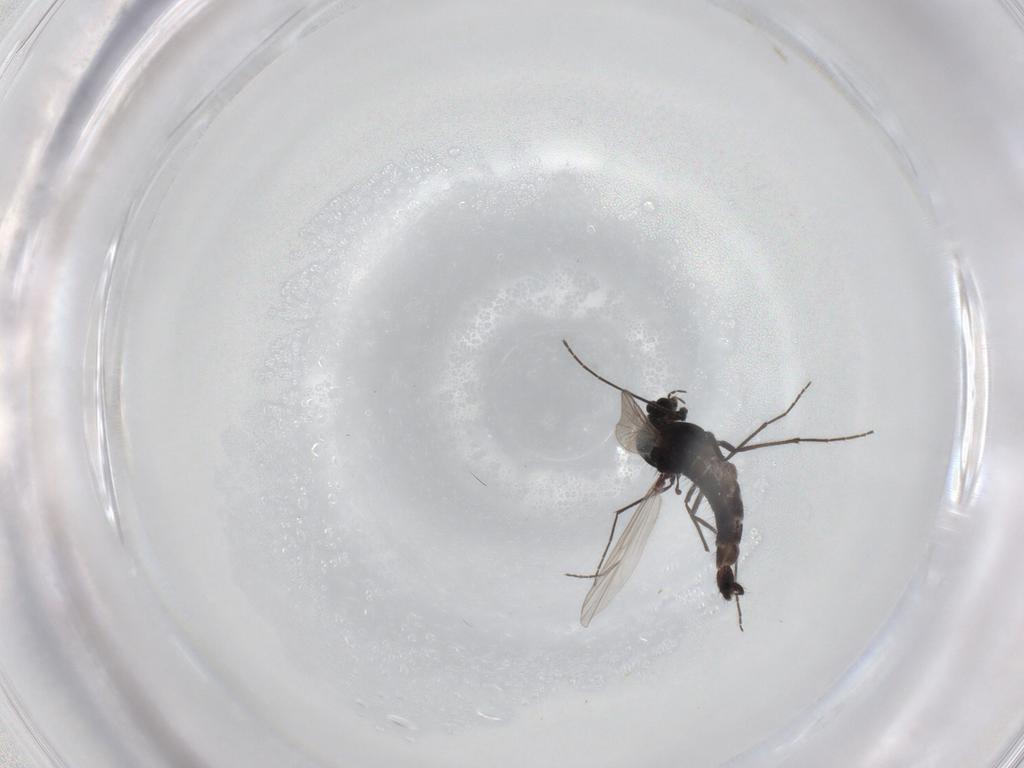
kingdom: Animalia
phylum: Arthropoda
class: Insecta
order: Diptera
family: Chironomidae
